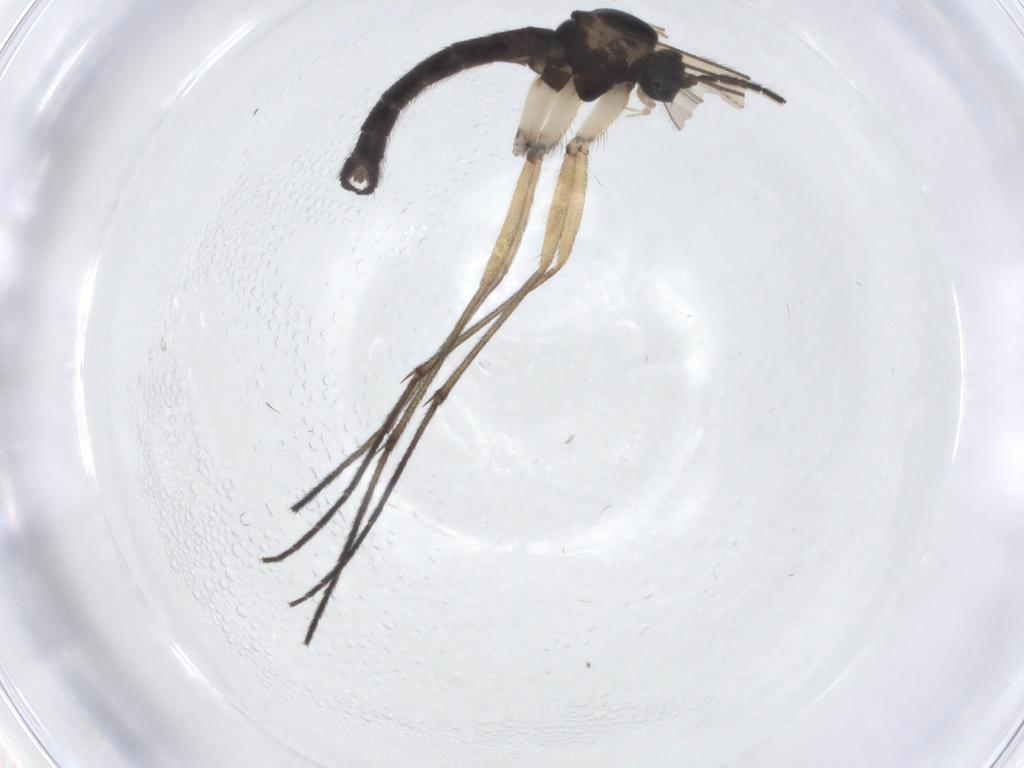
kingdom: Animalia
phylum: Arthropoda
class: Insecta
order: Diptera
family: Sciaridae
